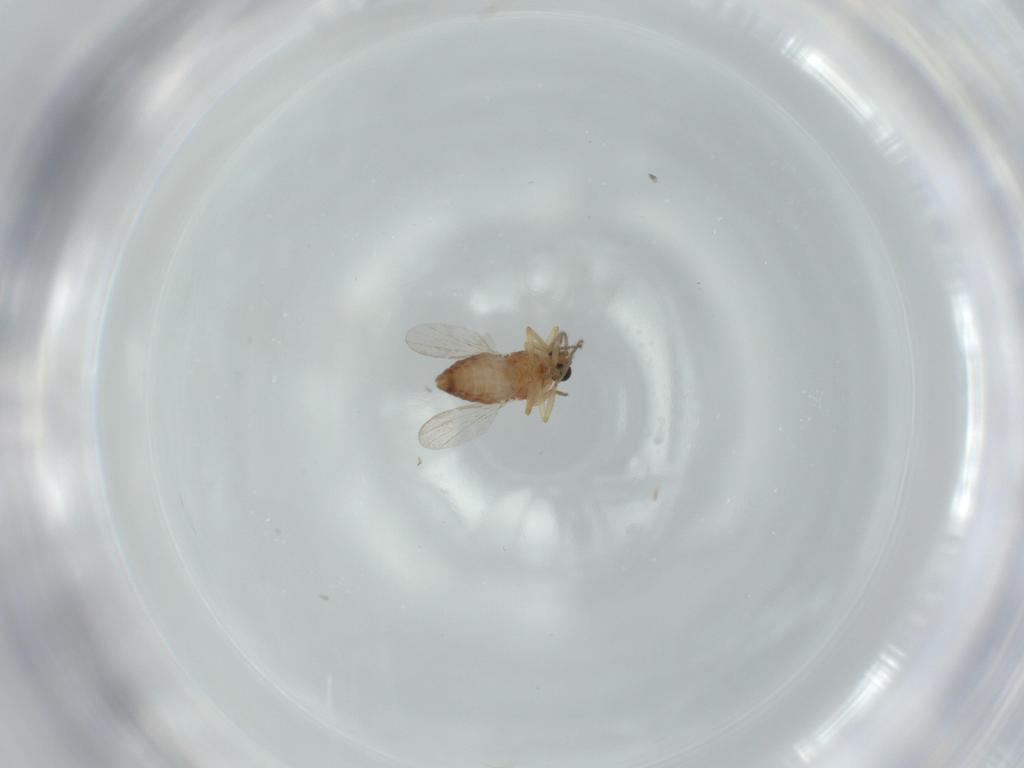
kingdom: Animalia
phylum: Arthropoda
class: Insecta
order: Diptera
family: Ceratopogonidae
